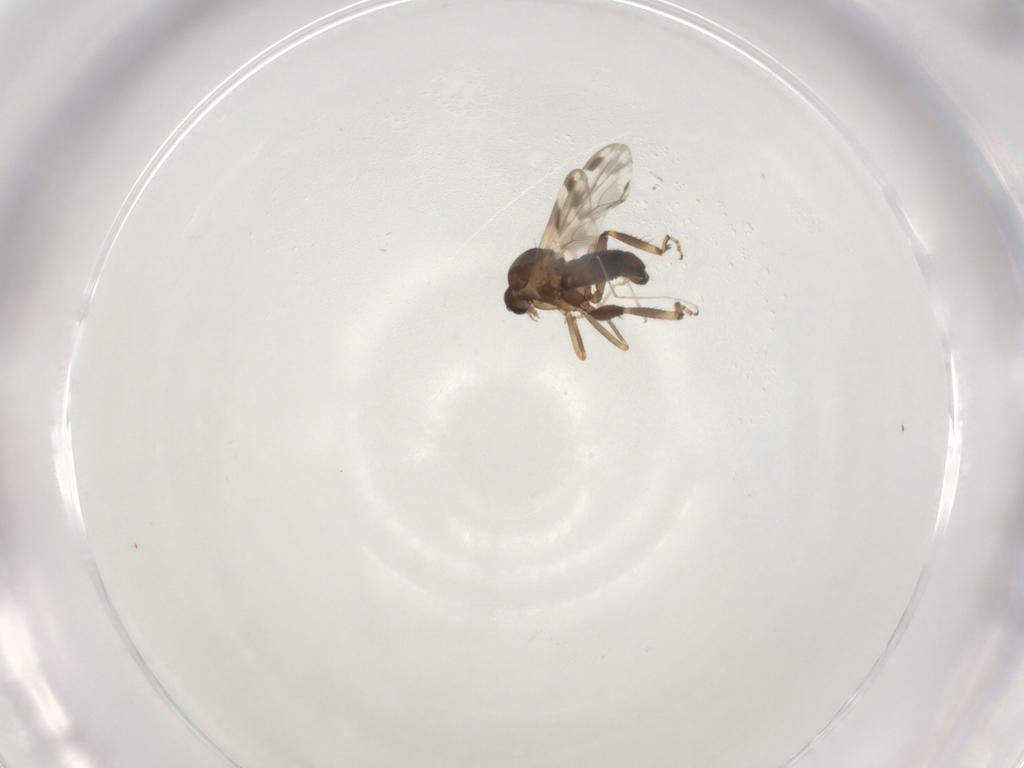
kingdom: Animalia
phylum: Arthropoda
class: Insecta
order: Diptera
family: Ceratopogonidae
